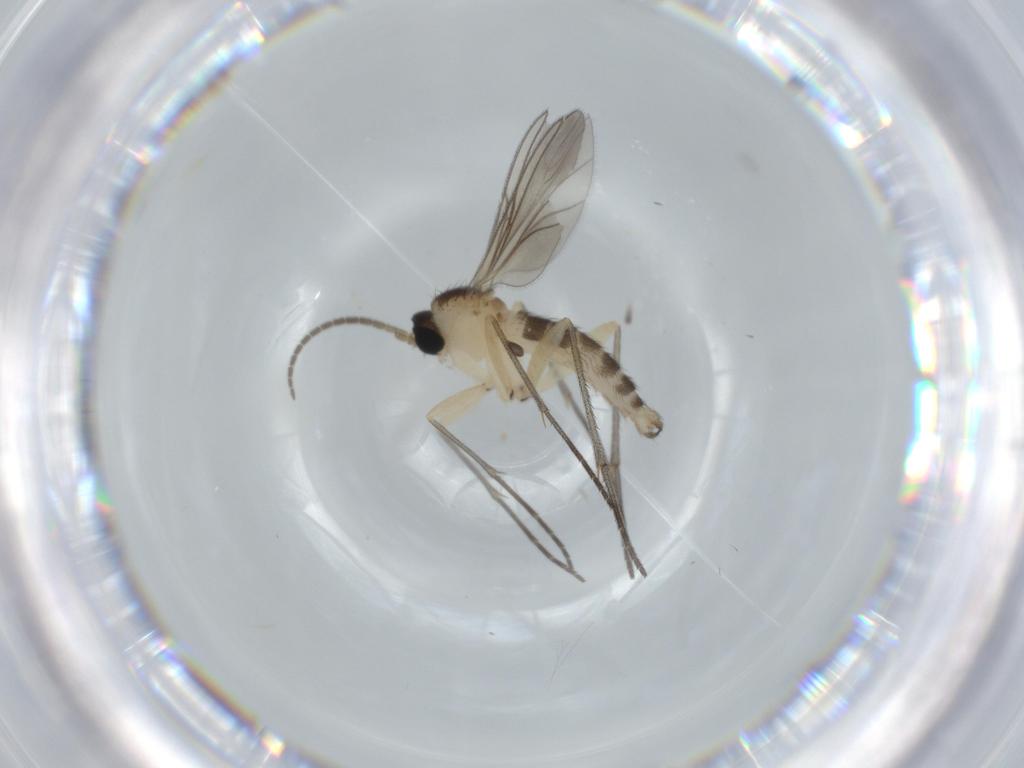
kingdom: Animalia
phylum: Arthropoda
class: Insecta
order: Diptera
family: Sciaridae
